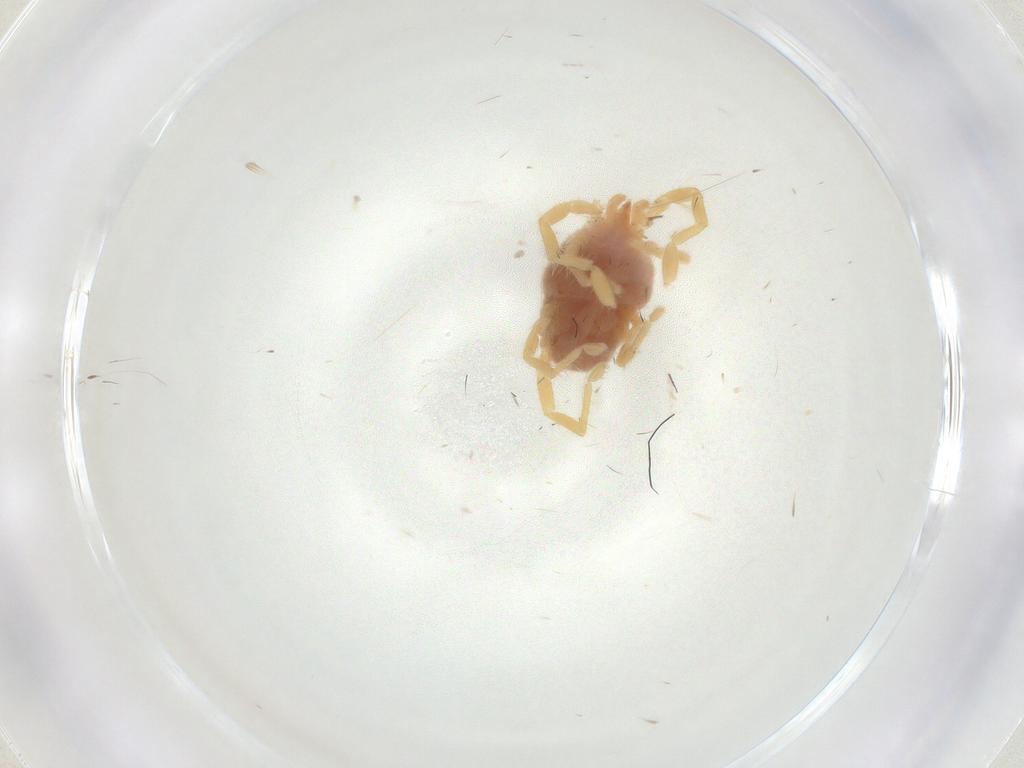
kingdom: Animalia
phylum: Arthropoda
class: Arachnida
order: Trombidiformes
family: Erythraeidae
